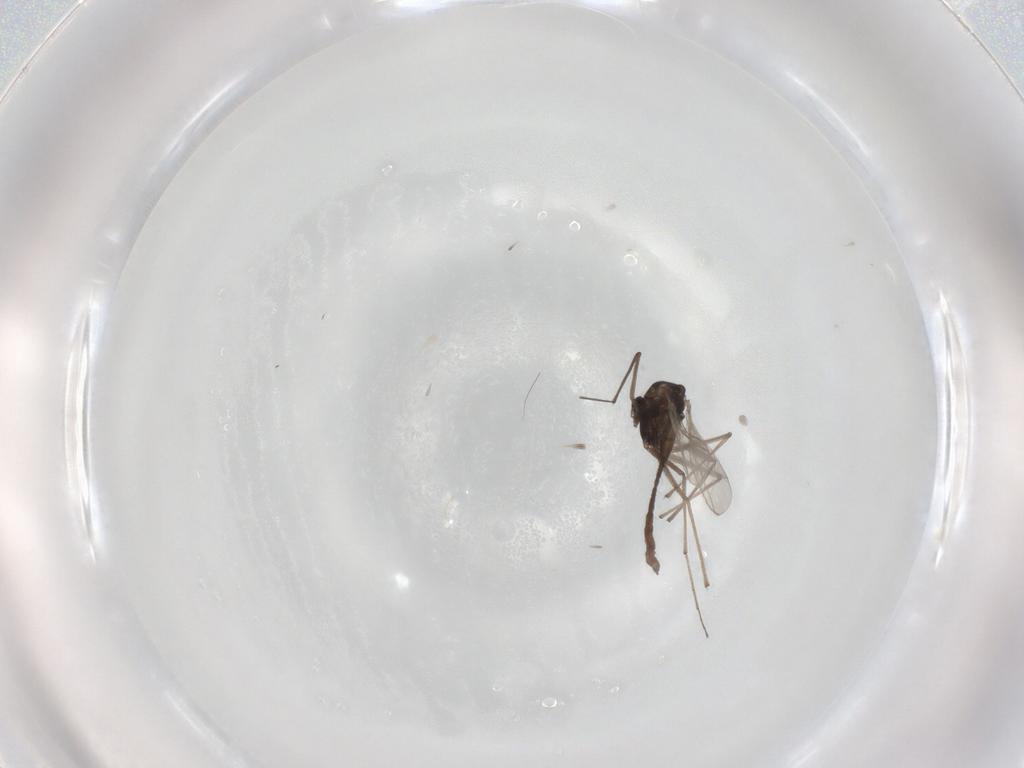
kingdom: Animalia
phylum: Arthropoda
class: Insecta
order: Diptera
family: Chironomidae
